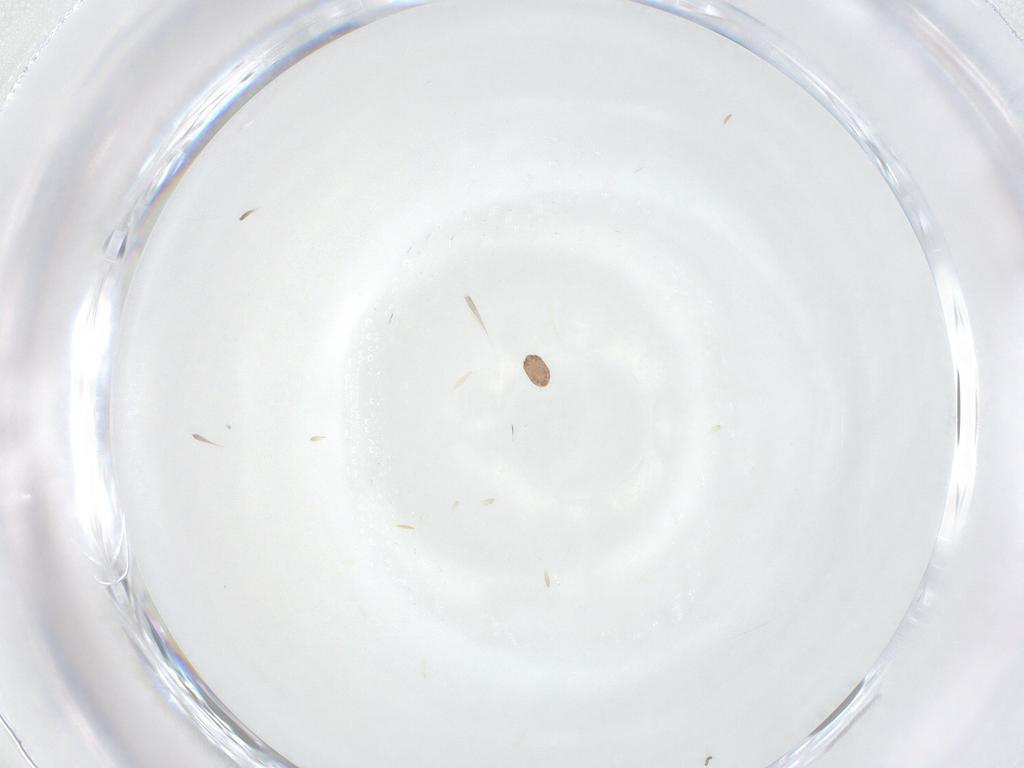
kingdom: Animalia
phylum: Arthropoda
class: Insecta
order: Diptera
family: Chironomidae
